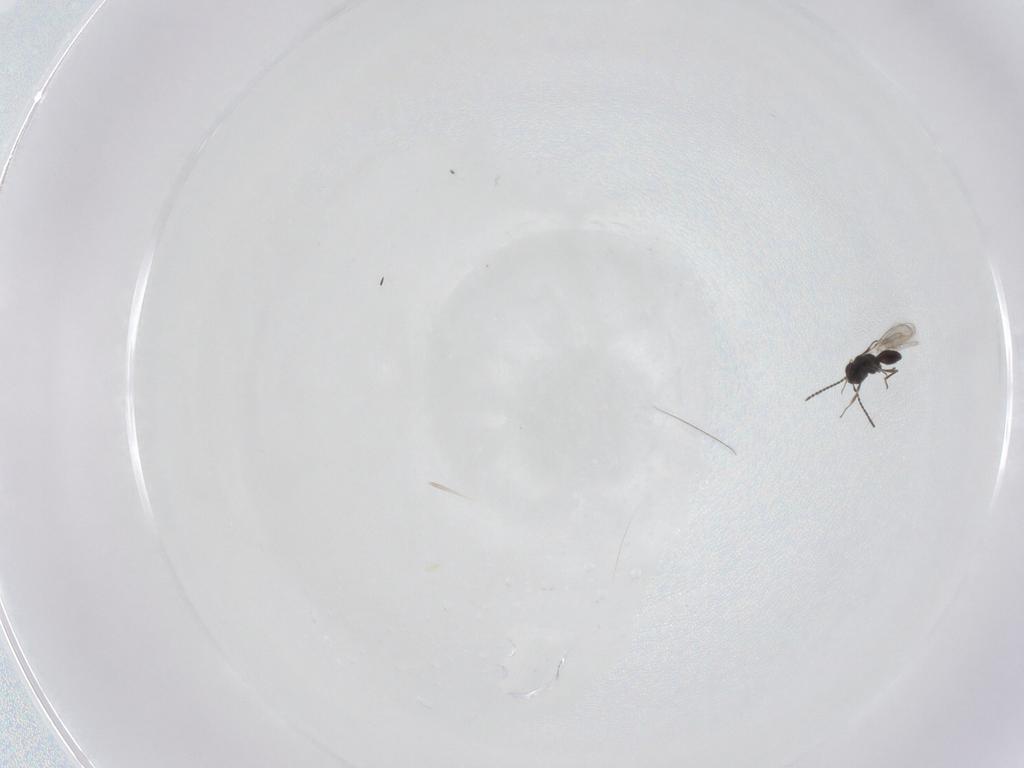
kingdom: Animalia
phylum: Arthropoda
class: Insecta
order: Hymenoptera
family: Scelionidae
